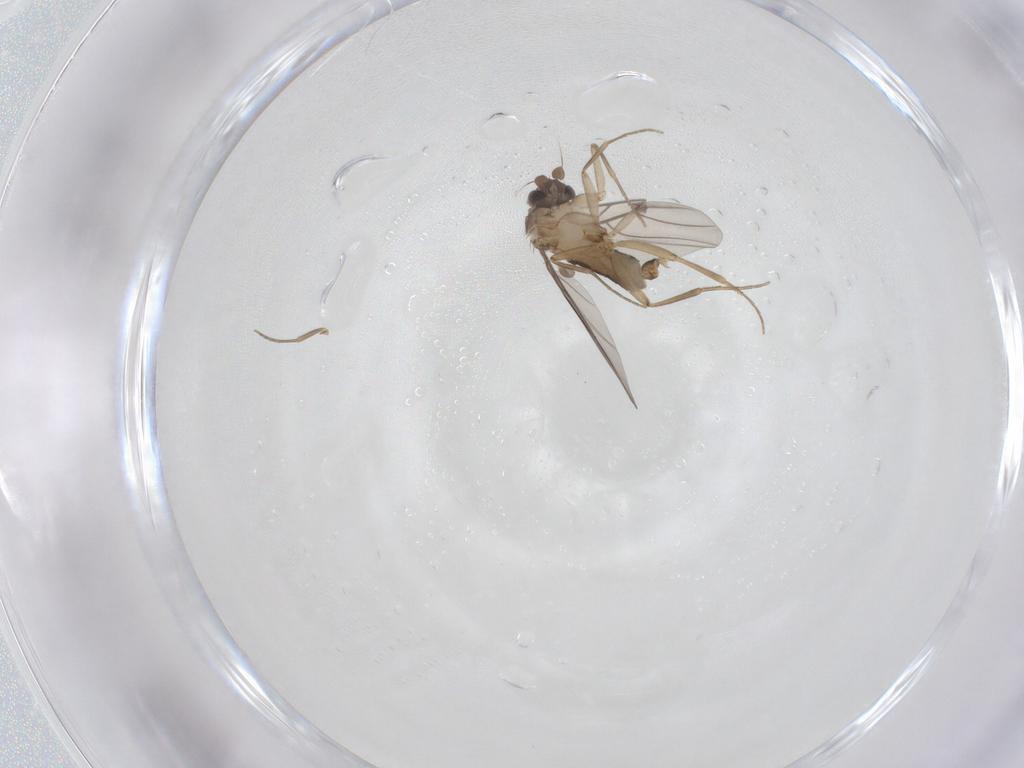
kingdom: Animalia
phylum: Arthropoda
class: Insecta
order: Diptera
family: Phoridae
